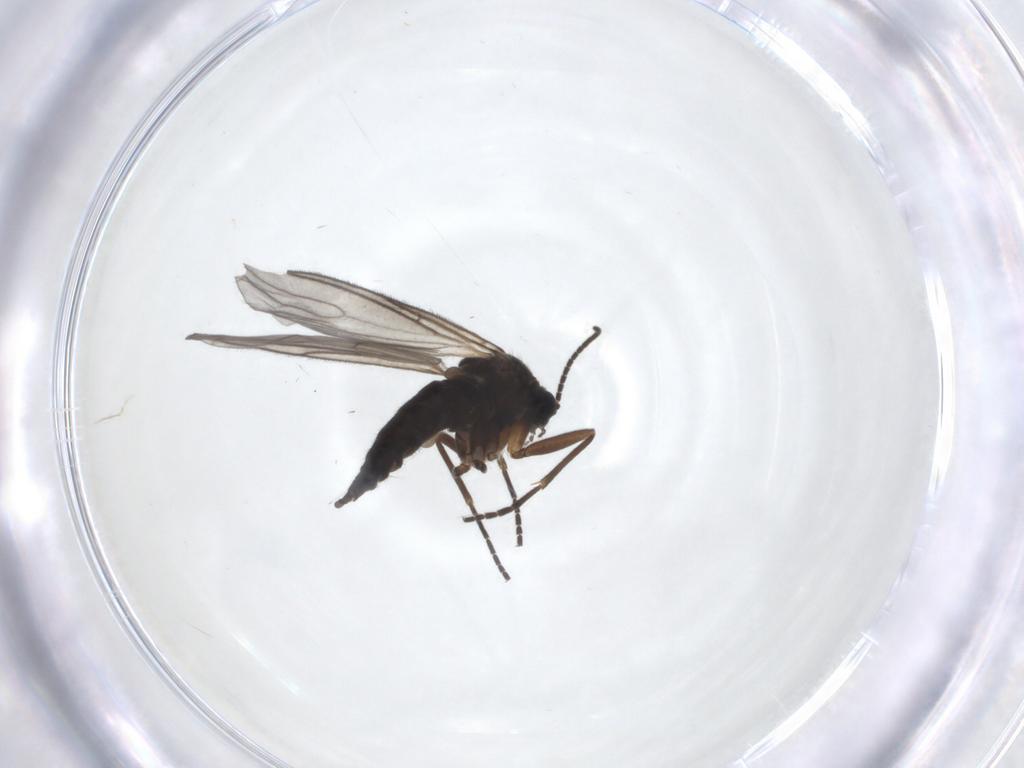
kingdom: Animalia
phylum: Arthropoda
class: Insecta
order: Diptera
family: Sciaridae
